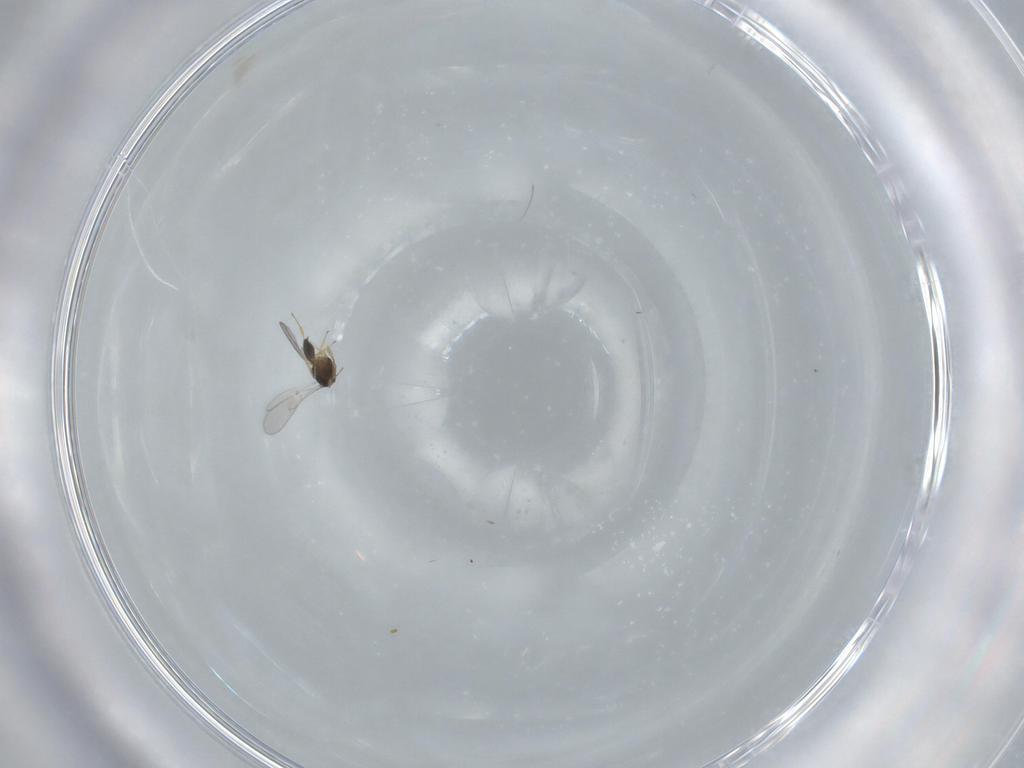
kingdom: Animalia
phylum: Arthropoda
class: Insecta
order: Hymenoptera
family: Scelionidae
